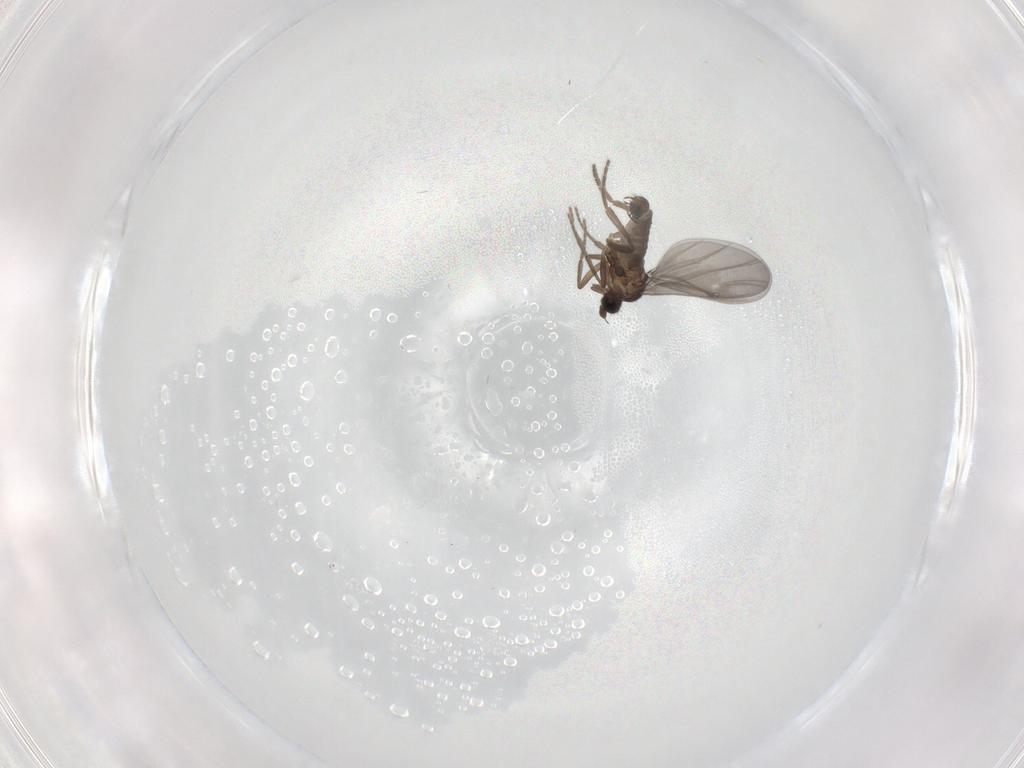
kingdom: Animalia
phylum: Arthropoda
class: Insecta
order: Diptera
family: Phoridae
